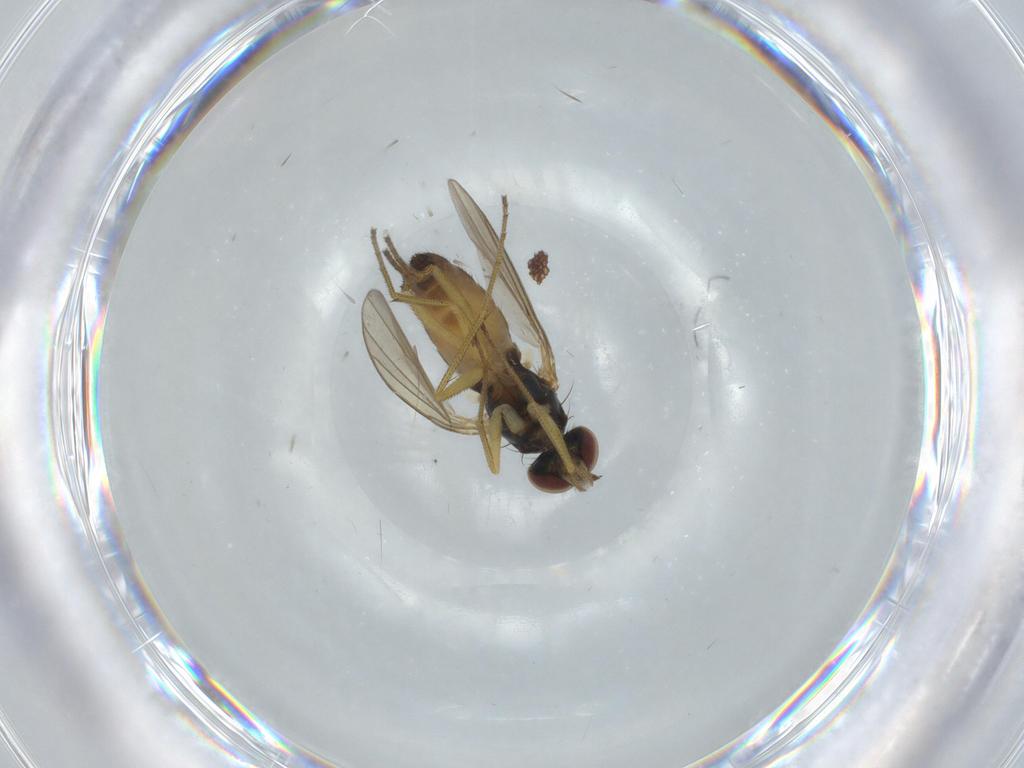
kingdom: Animalia
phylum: Arthropoda
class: Insecta
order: Diptera
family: Dolichopodidae
